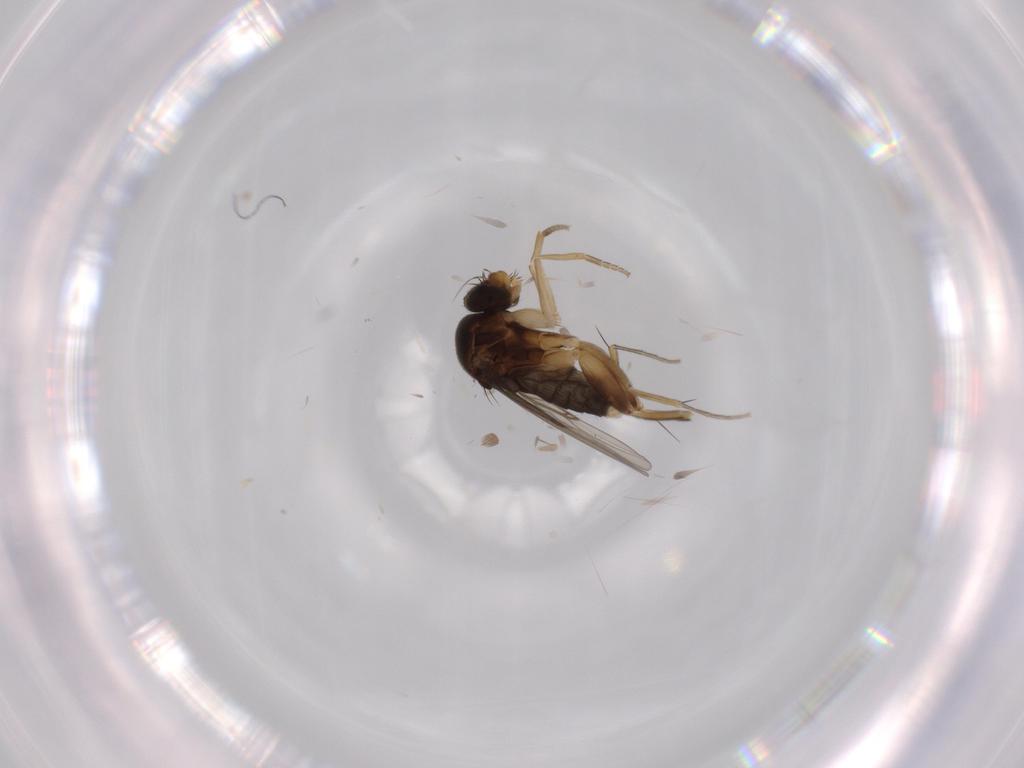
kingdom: Animalia
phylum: Arthropoda
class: Insecta
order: Diptera
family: Phoridae
